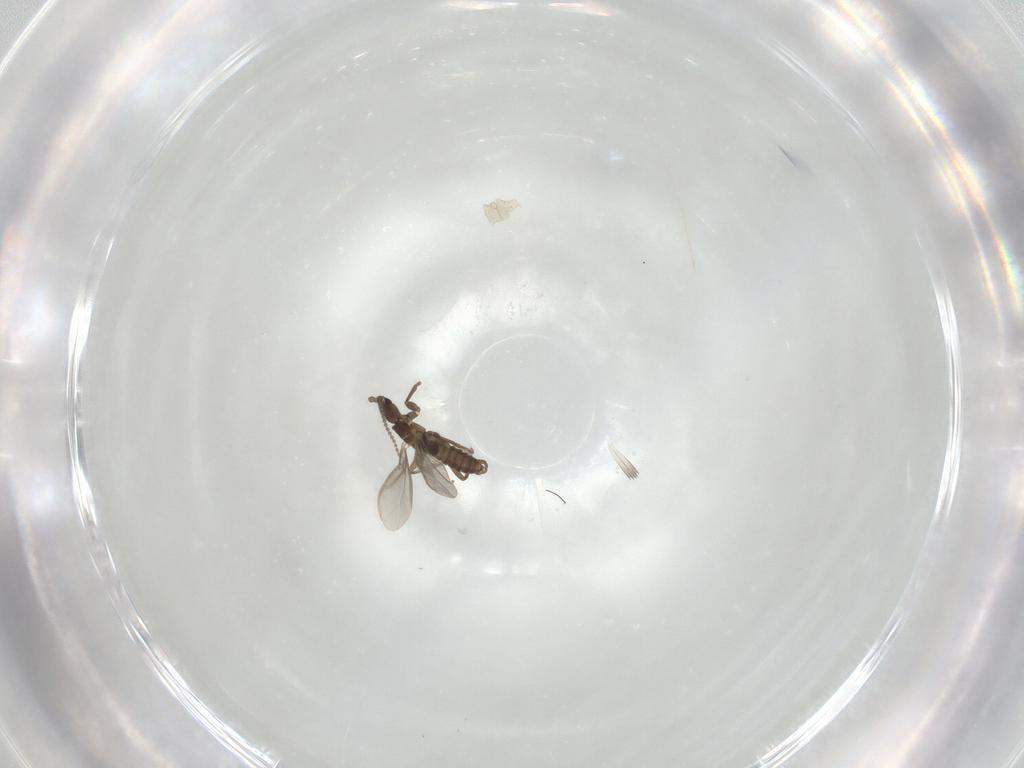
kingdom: Animalia
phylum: Arthropoda
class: Insecta
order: Diptera
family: Sciaridae
